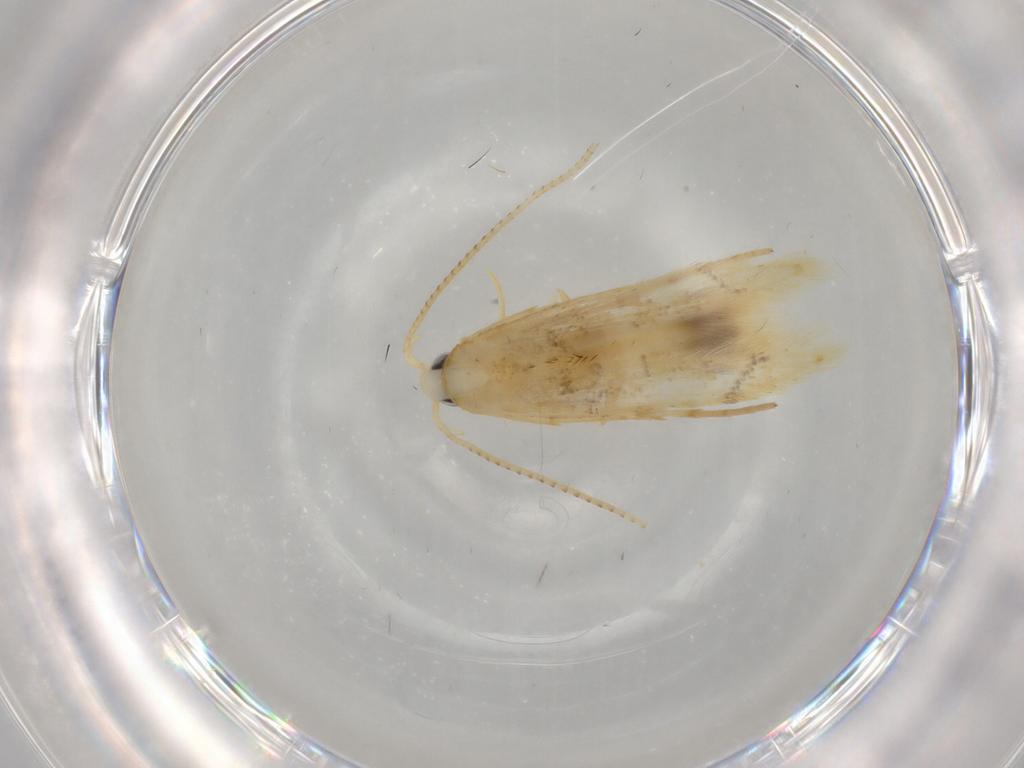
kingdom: Animalia
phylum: Arthropoda
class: Insecta
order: Lepidoptera
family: Cosmopterigidae
